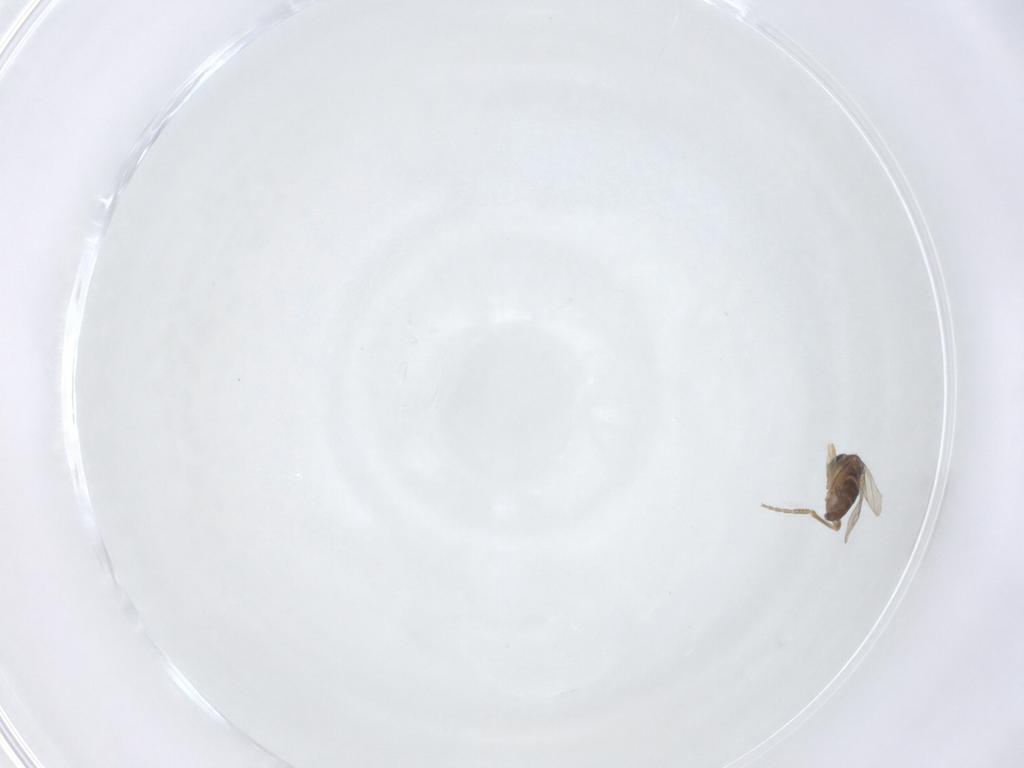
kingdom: Animalia
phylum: Arthropoda
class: Insecta
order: Diptera
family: Phoridae
